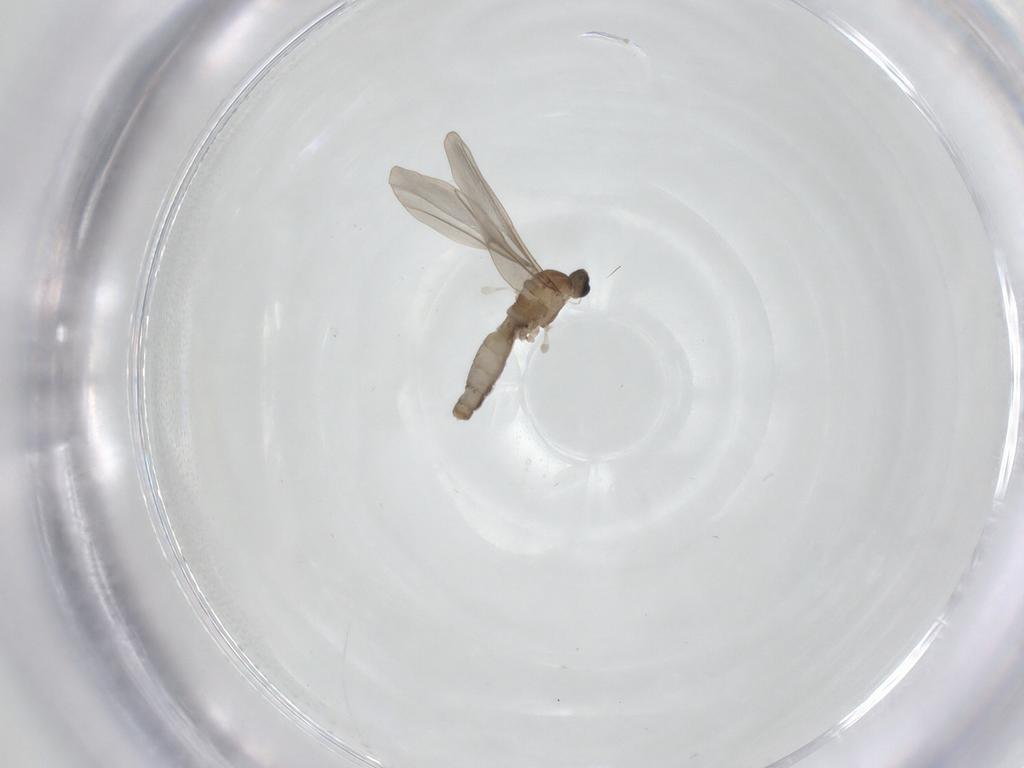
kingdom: Animalia
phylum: Arthropoda
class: Insecta
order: Diptera
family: Cecidomyiidae
